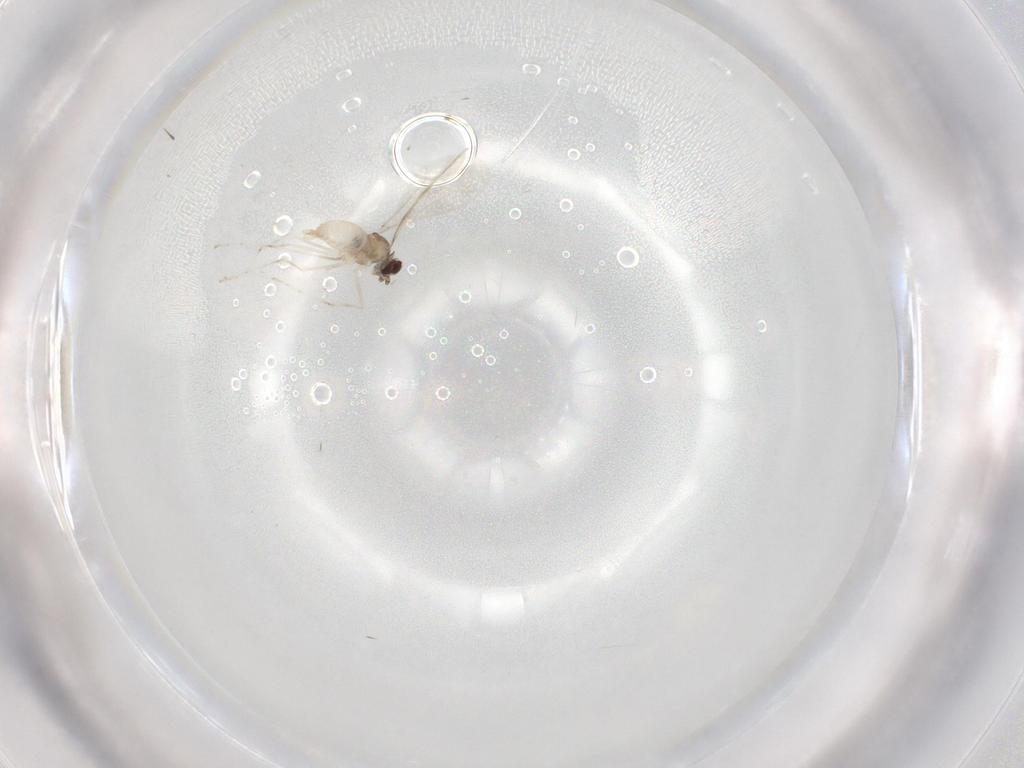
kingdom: Animalia
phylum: Arthropoda
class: Insecta
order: Diptera
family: Cecidomyiidae
